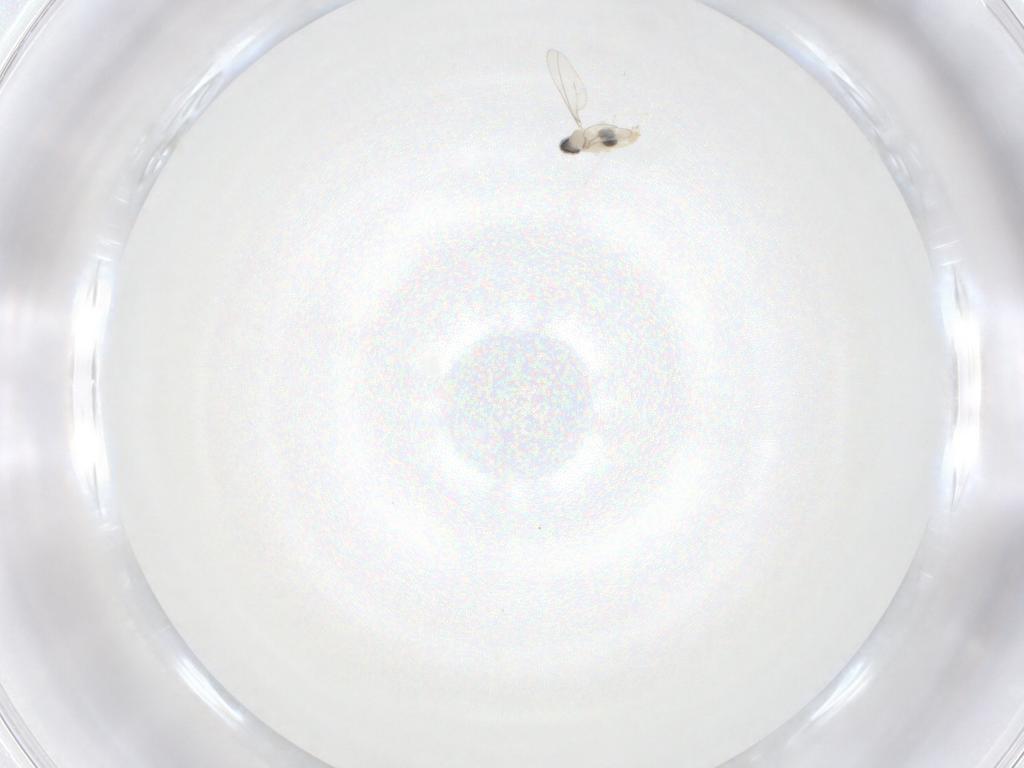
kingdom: Animalia
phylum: Arthropoda
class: Insecta
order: Diptera
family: Cecidomyiidae
